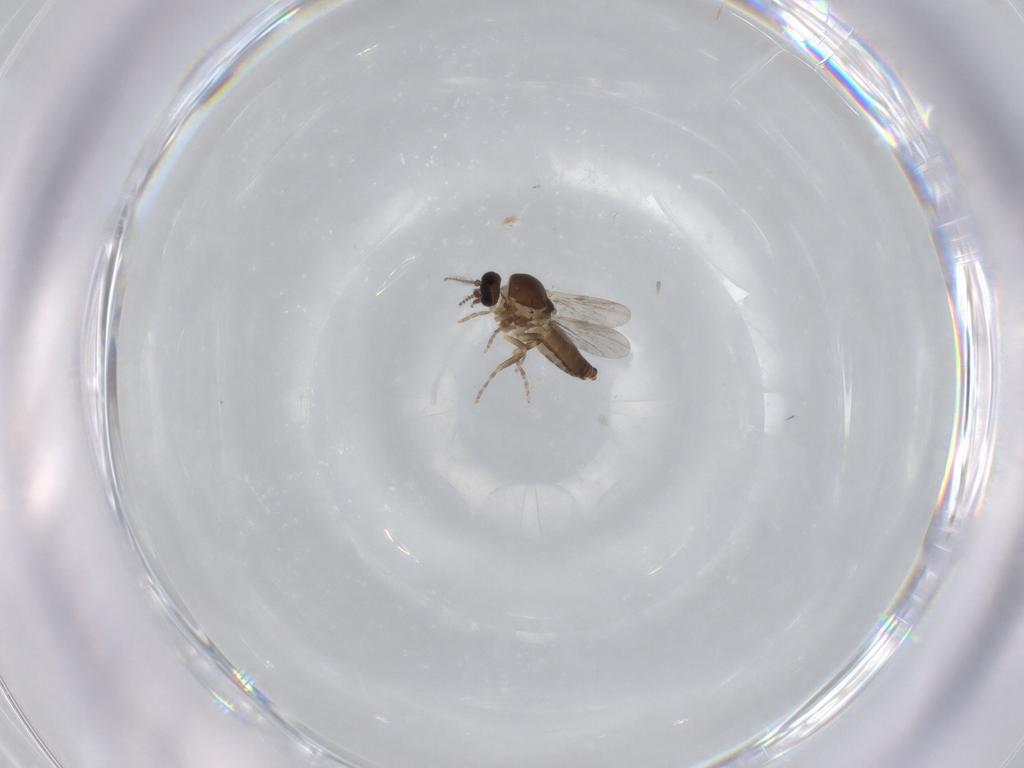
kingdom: Animalia
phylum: Arthropoda
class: Insecta
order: Diptera
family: Ceratopogonidae
